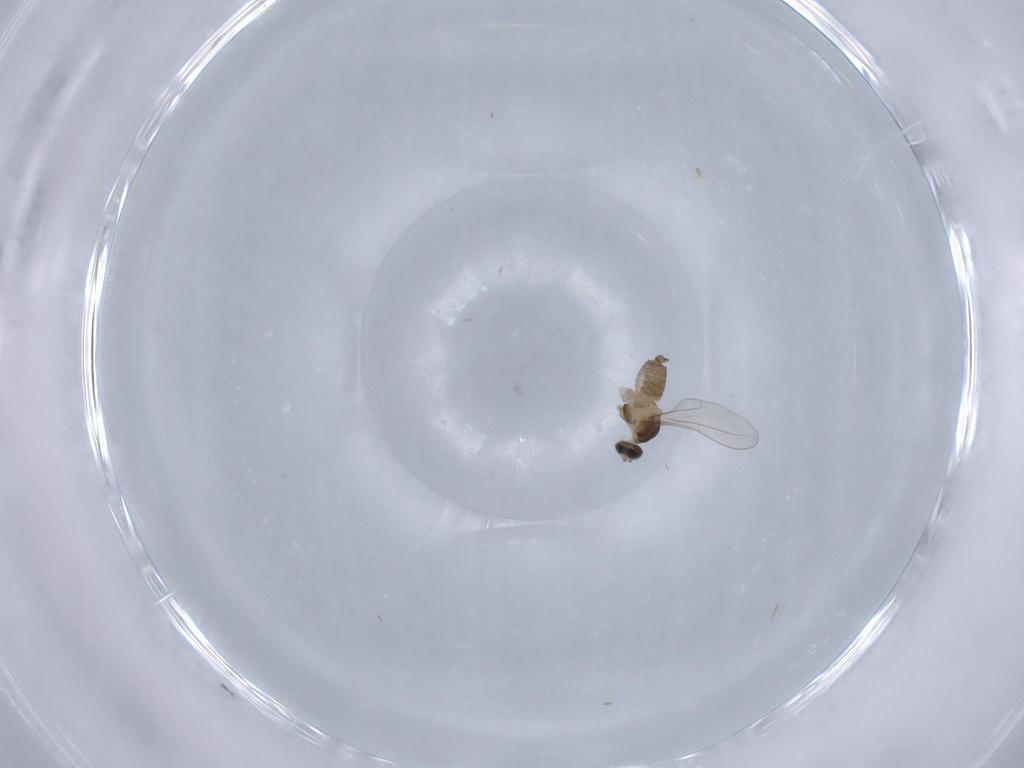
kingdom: Animalia
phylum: Arthropoda
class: Insecta
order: Diptera
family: Cecidomyiidae
